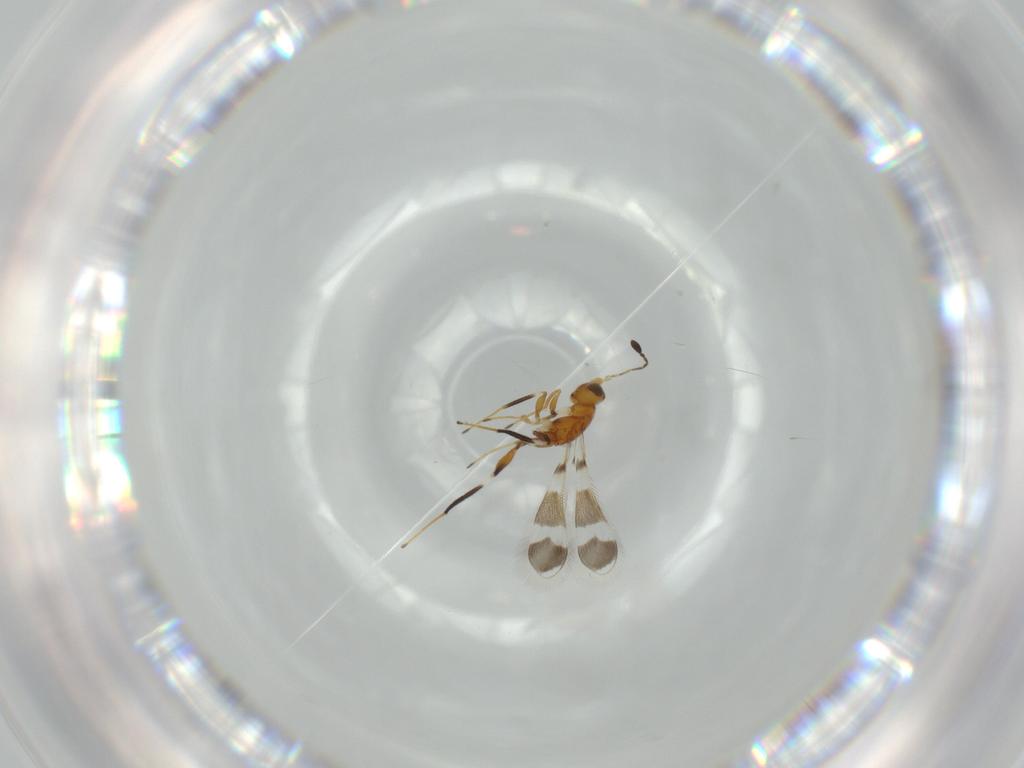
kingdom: Animalia
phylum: Arthropoda
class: Insecta
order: Hymenoptera
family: Mymaridae
